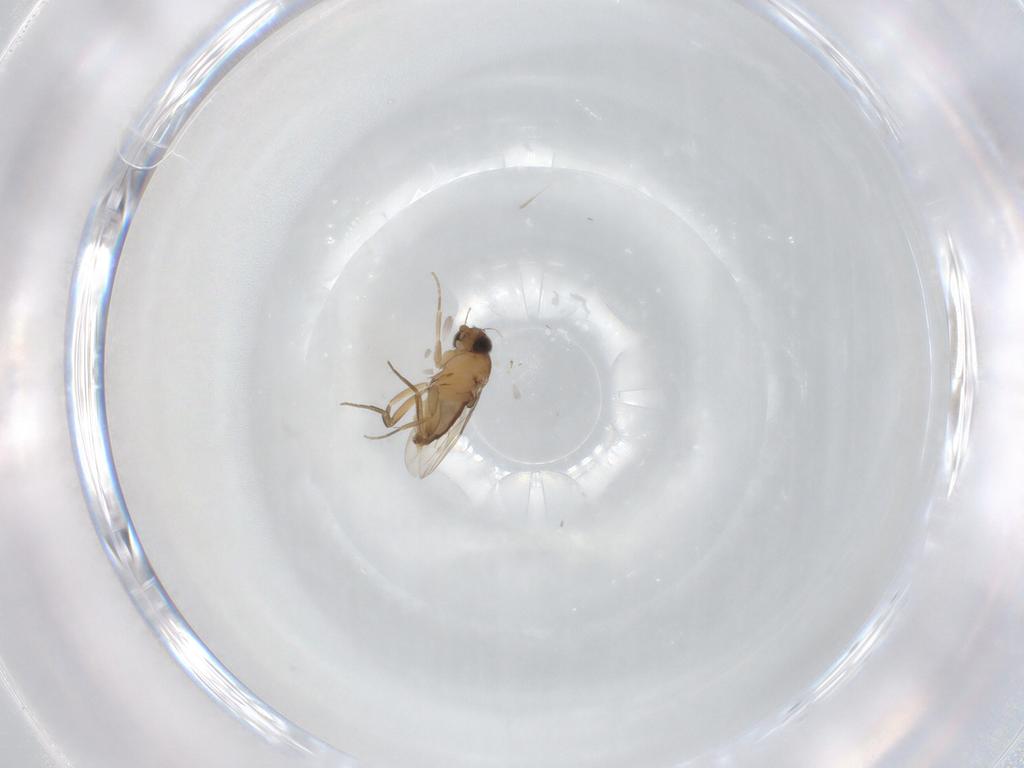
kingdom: Animalia
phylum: Arthropoda
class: Insecta
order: Diptera
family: Phoridae
